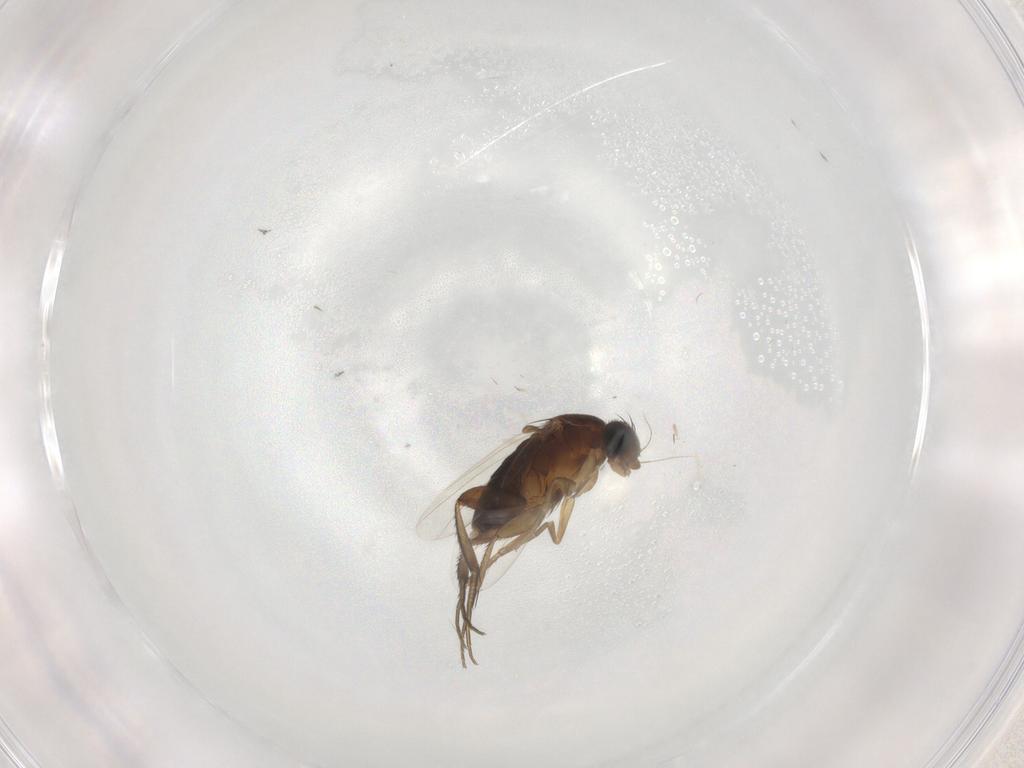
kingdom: Animalia
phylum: Arthropoda
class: Insecta
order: Diptera
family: Phoridae
